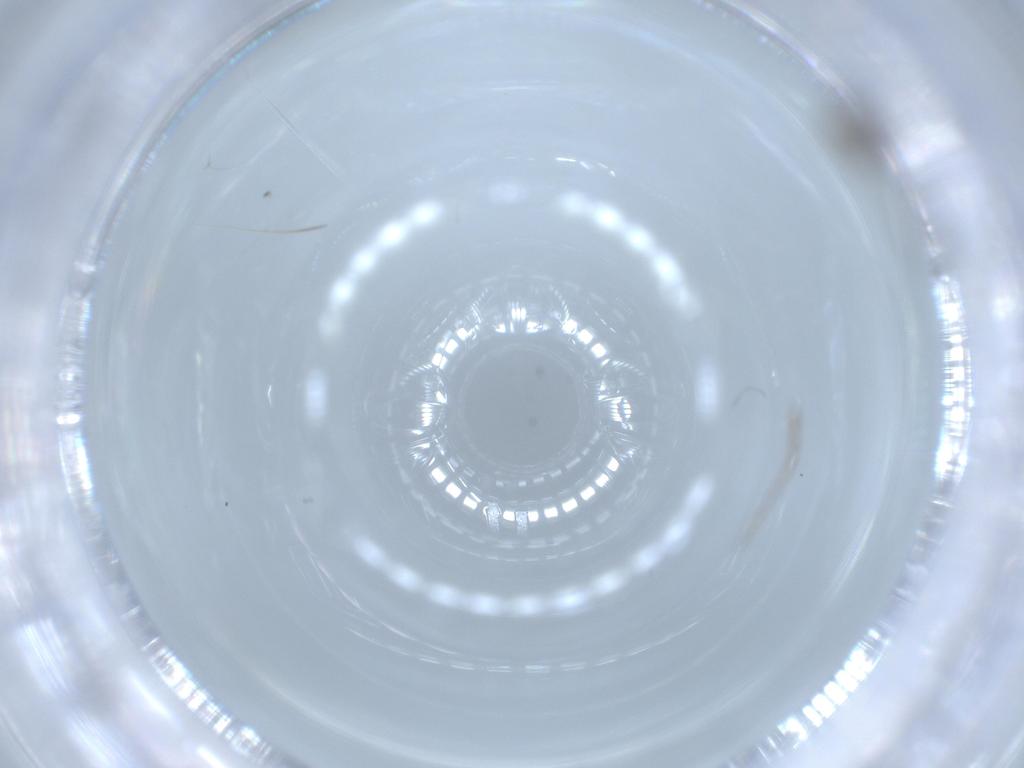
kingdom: Animalia
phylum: Arthropoda
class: Insecta
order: Diptera
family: Cecidomyiidae
